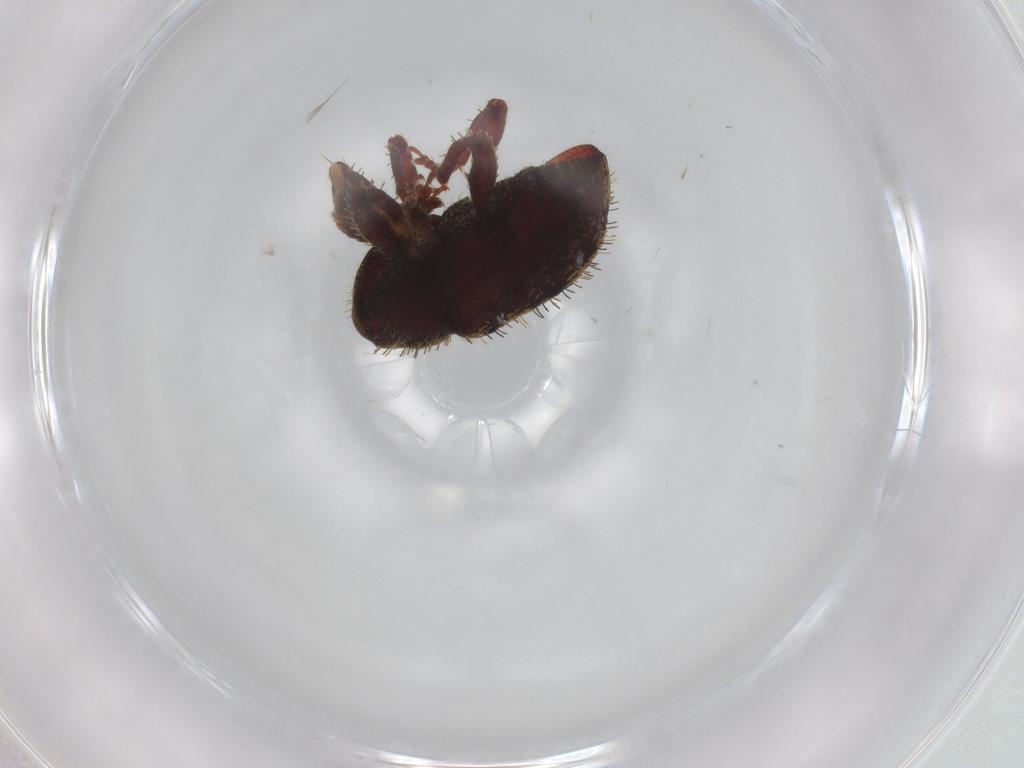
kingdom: Animalia
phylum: Arthropoda
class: Insecta
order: Coleoptera
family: Curculionidae
